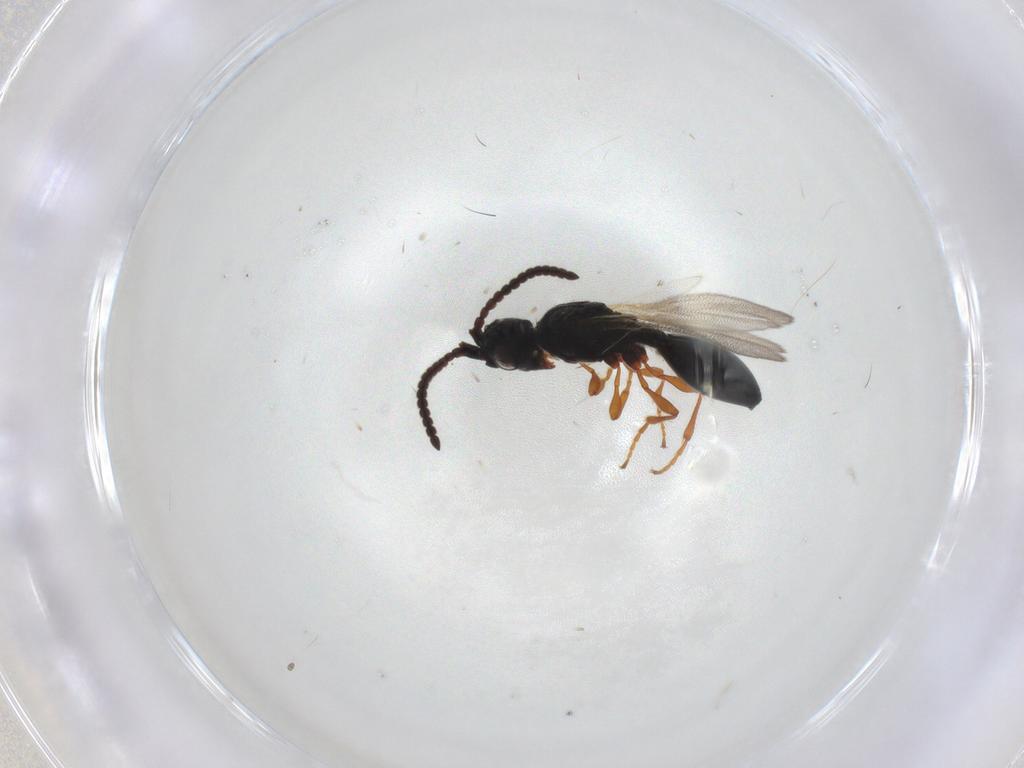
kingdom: Animalia
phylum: Arthropoda
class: Insecta
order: Hymenoptera
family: Diapriidae
